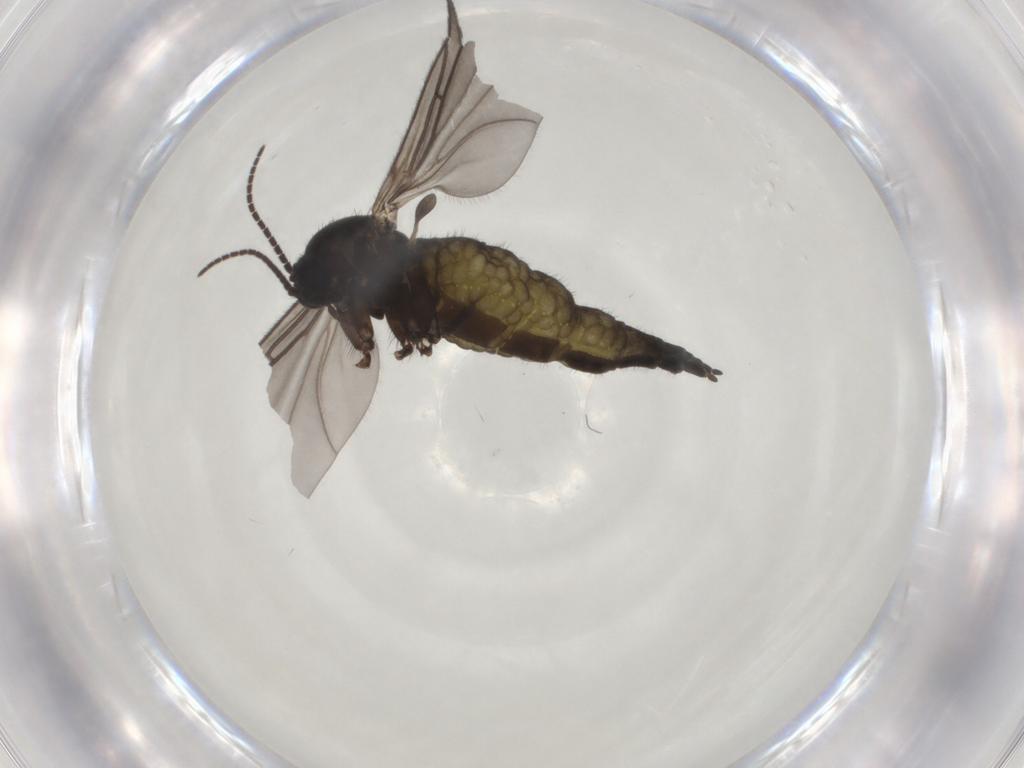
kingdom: Animalia
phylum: Arthropoda
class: Insecta
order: Diptera
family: Sciaridae
